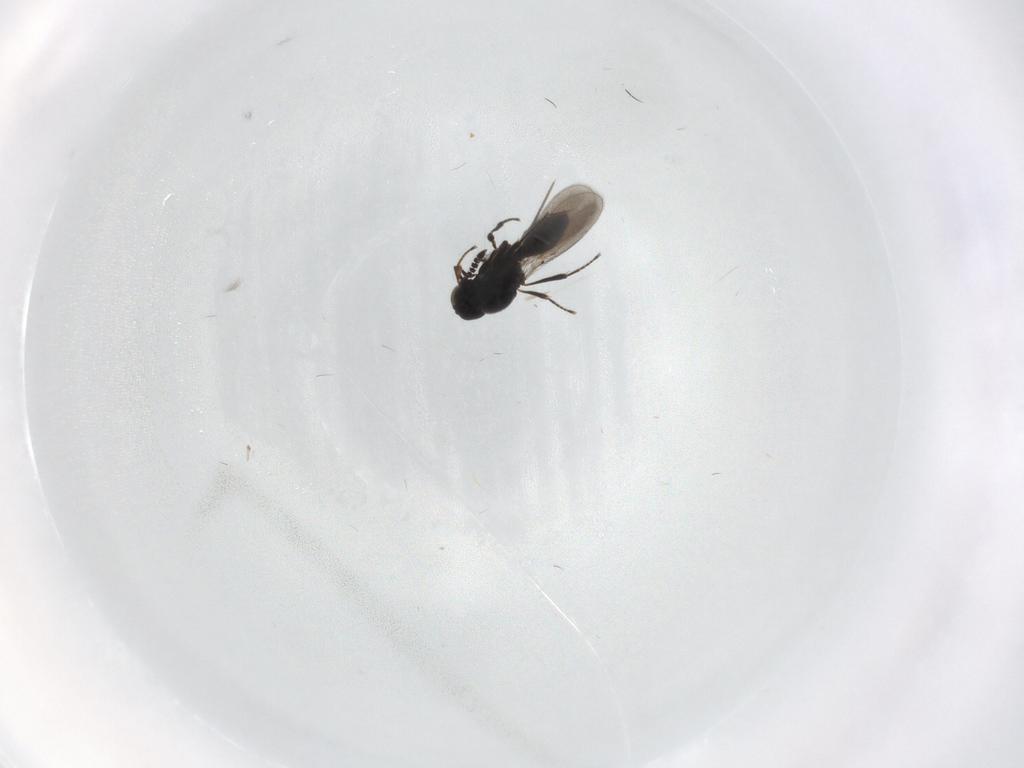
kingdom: Animalia
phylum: Arthropoda
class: Insecta
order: Hymenoptera
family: Platygastridae
